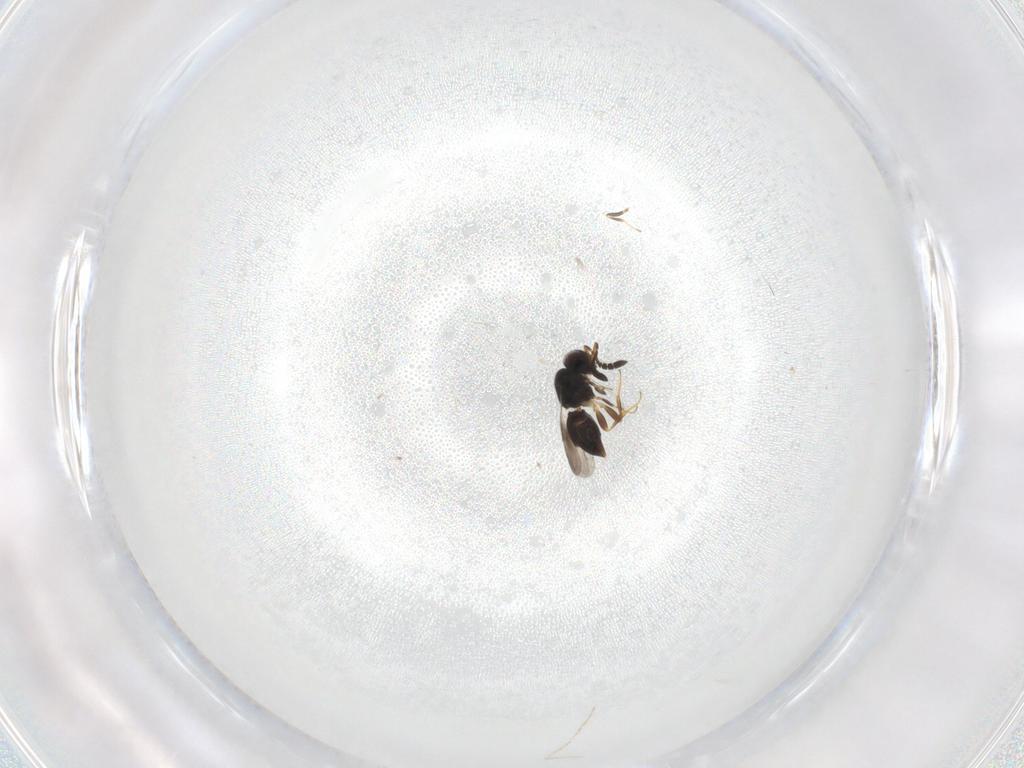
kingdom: Animalia
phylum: Arthropoda
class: Insecta
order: Hymenoptera
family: Ceraphronidae
